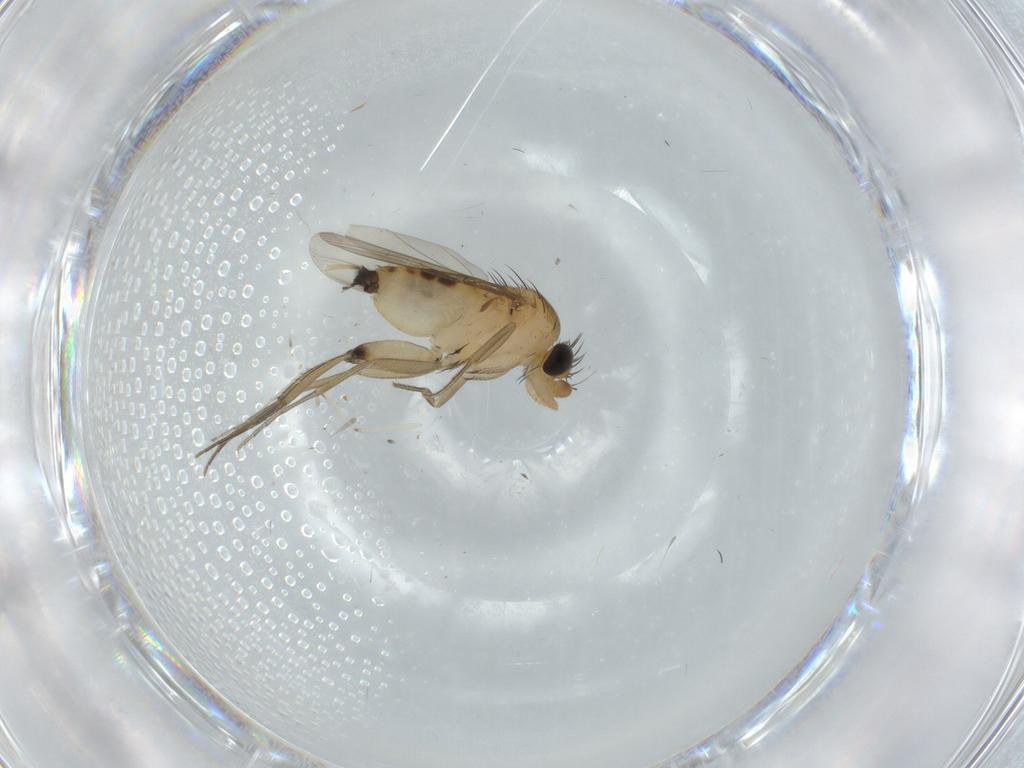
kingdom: Animalia
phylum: Arthropoda
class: Insecta
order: Diptera
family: Phoridae
